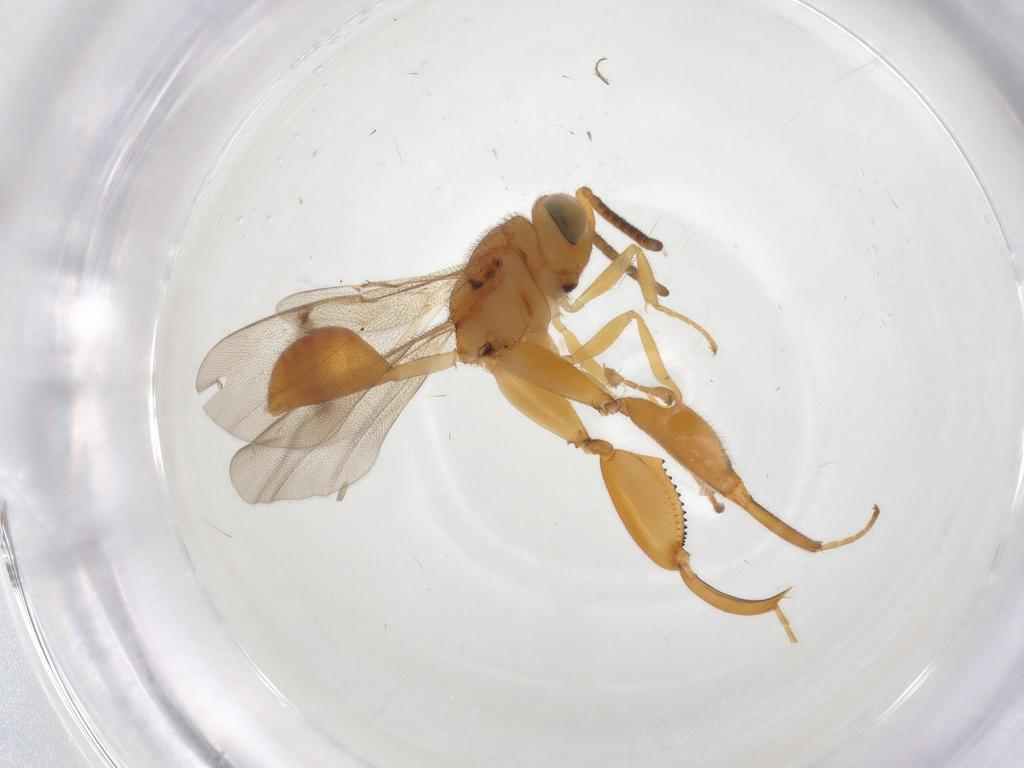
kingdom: Animalia
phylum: Arthropoda
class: Insecta
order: Hymenoptera
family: Chalcididae
